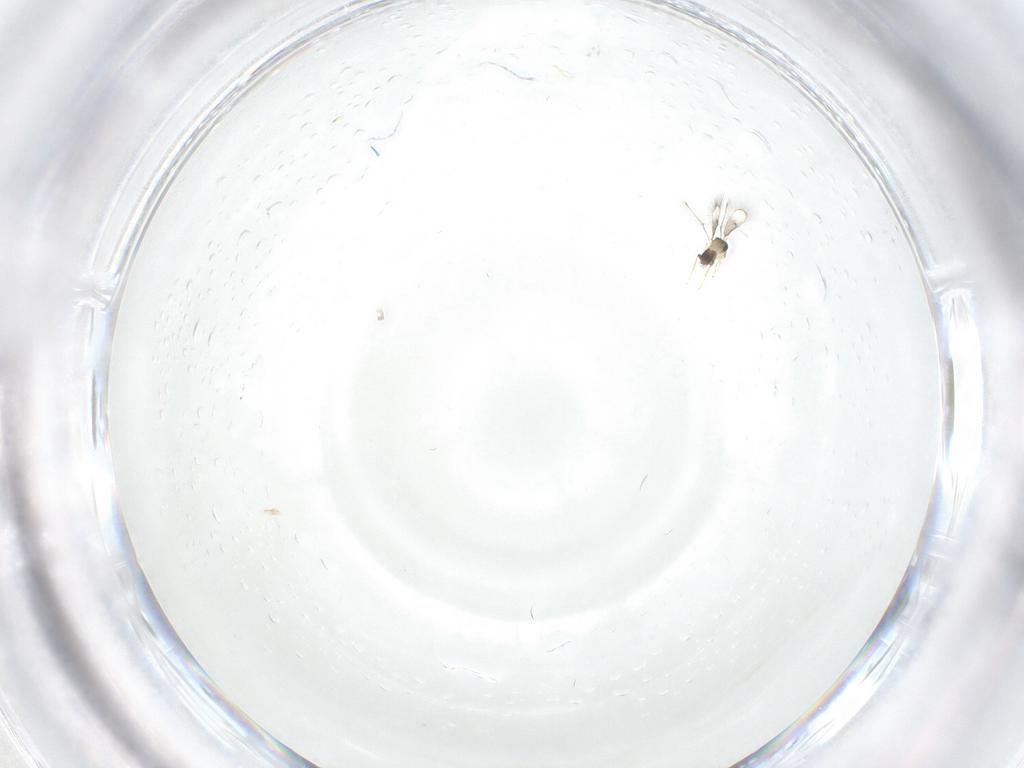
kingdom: Animalia
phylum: Arthropoda
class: Insecta
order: Hymenoptera
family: Trichogrammatidae
